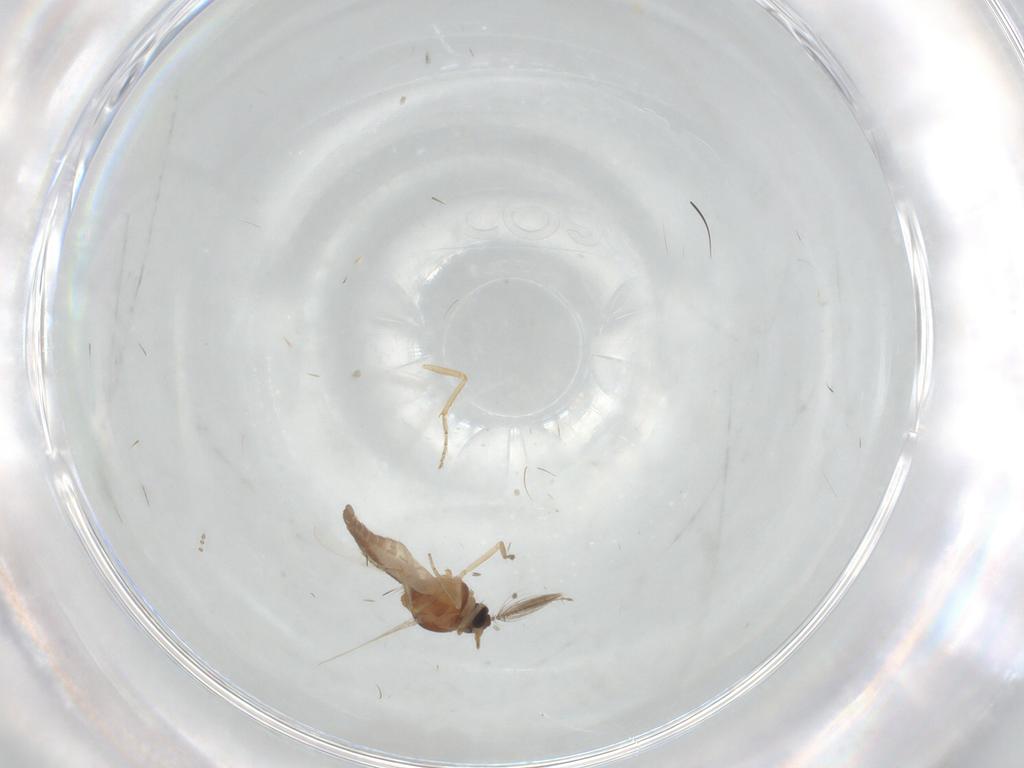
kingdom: Animalia
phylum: Arthropoda
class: Insecta
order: Diptera
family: Ceratopogonidae
